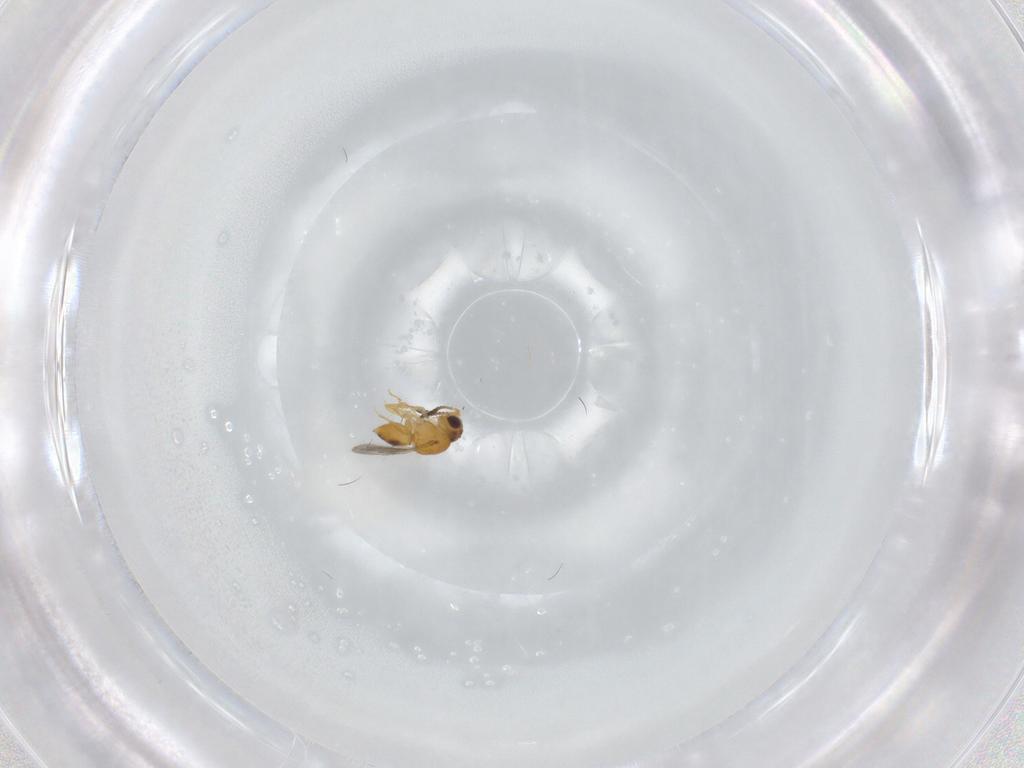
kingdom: Animalia
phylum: Arthropoda
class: Insecta
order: Hymenoptera
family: Ceraphronidae
